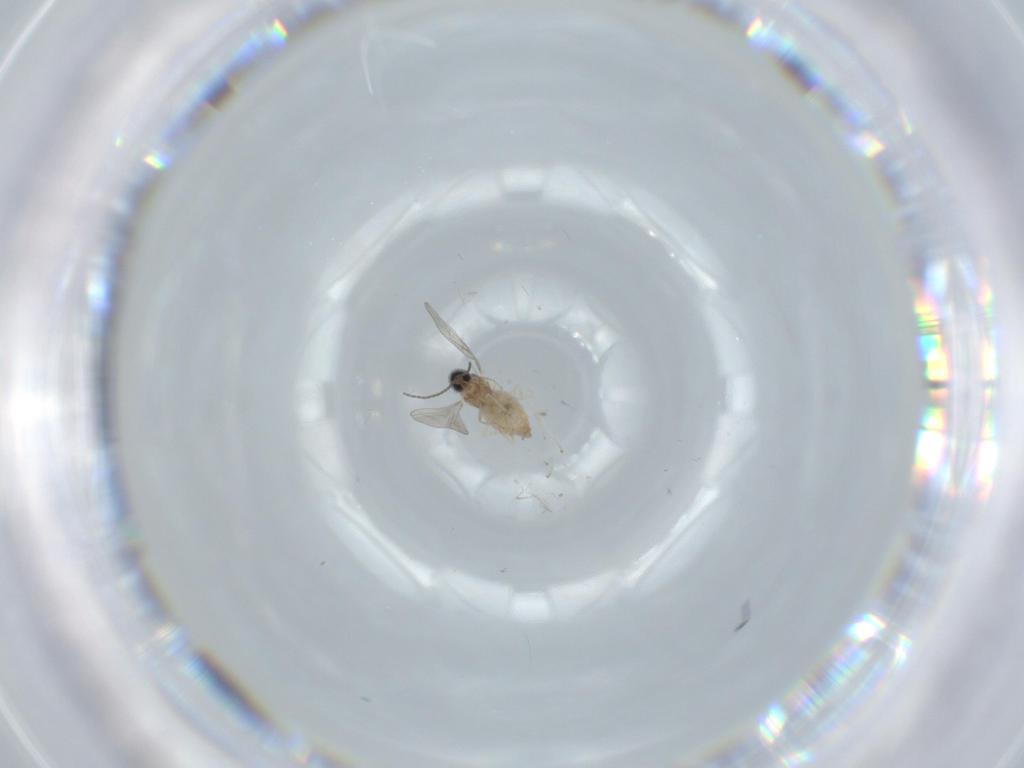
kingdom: Animalia
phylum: Arthropoda
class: Insecta
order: Diptera
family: Cecidomyiidae
